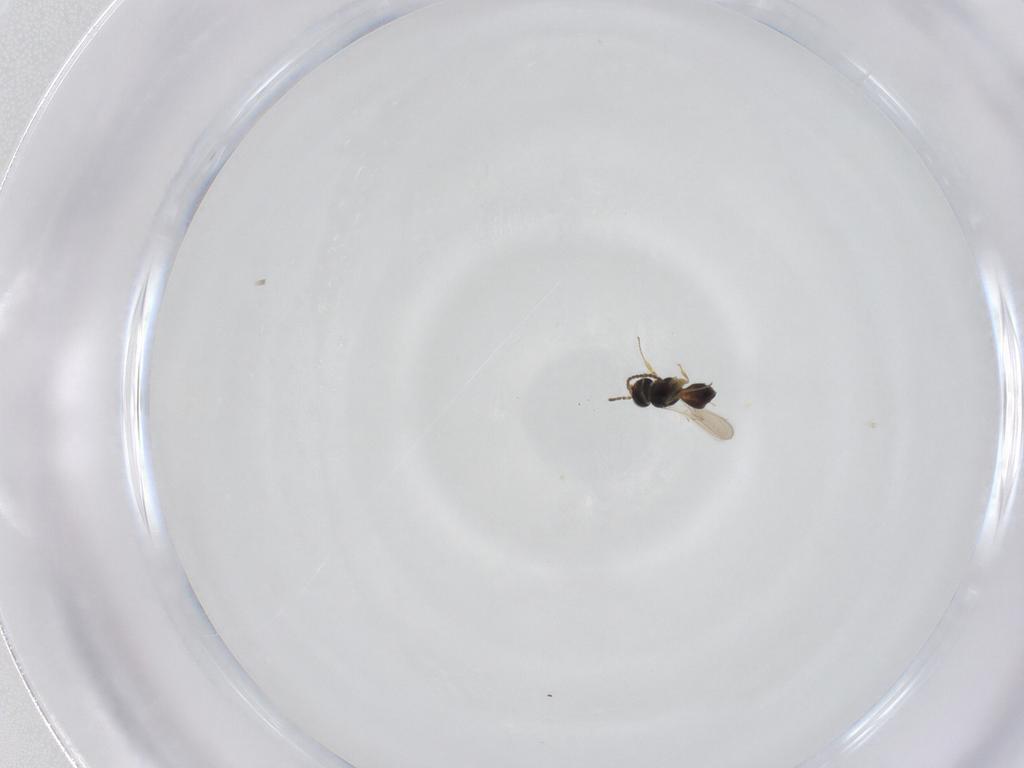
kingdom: Animalia
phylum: Arthropoda
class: Insecta
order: Hymenoptera
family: Scelionidae
